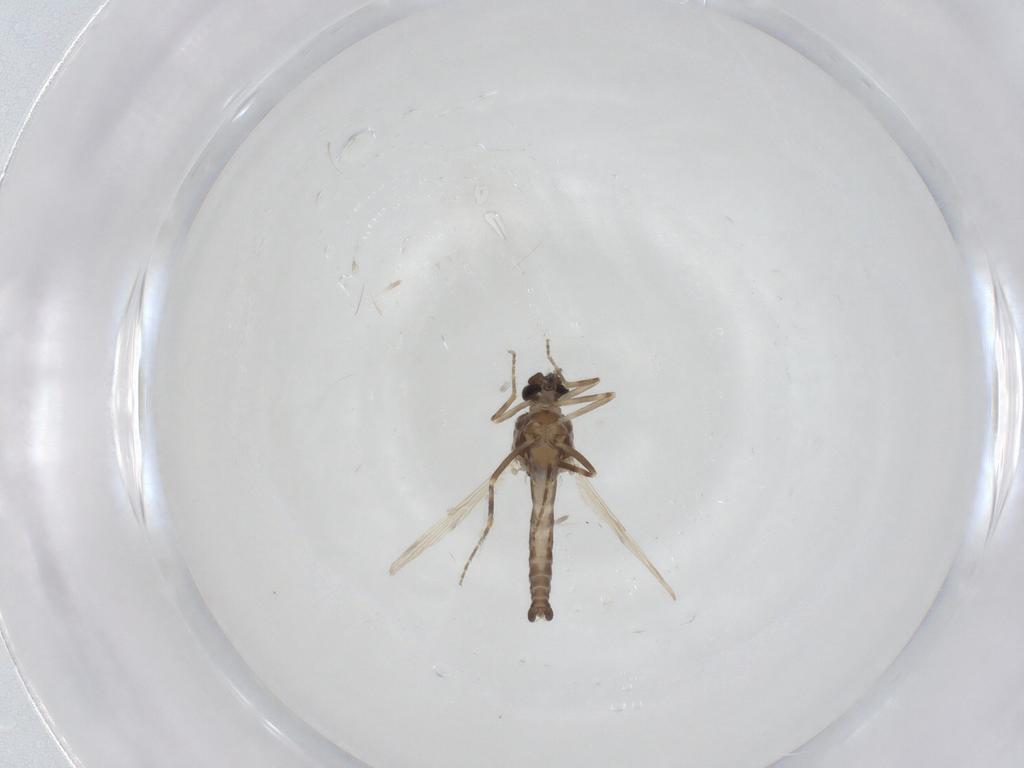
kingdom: Animalia
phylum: Arthropoda
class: Insecta
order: Diptera
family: Ceratopogonidae
